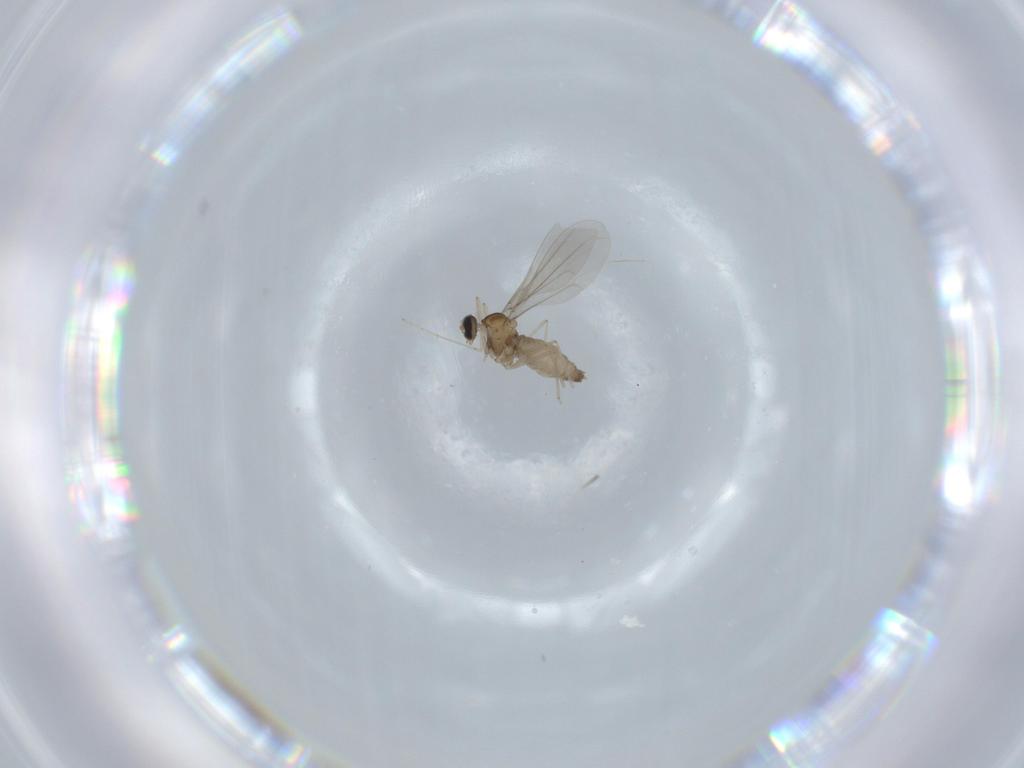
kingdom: Animalia
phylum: Arthropoda
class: Insecta
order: Diptera
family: Cecidomyiidae
